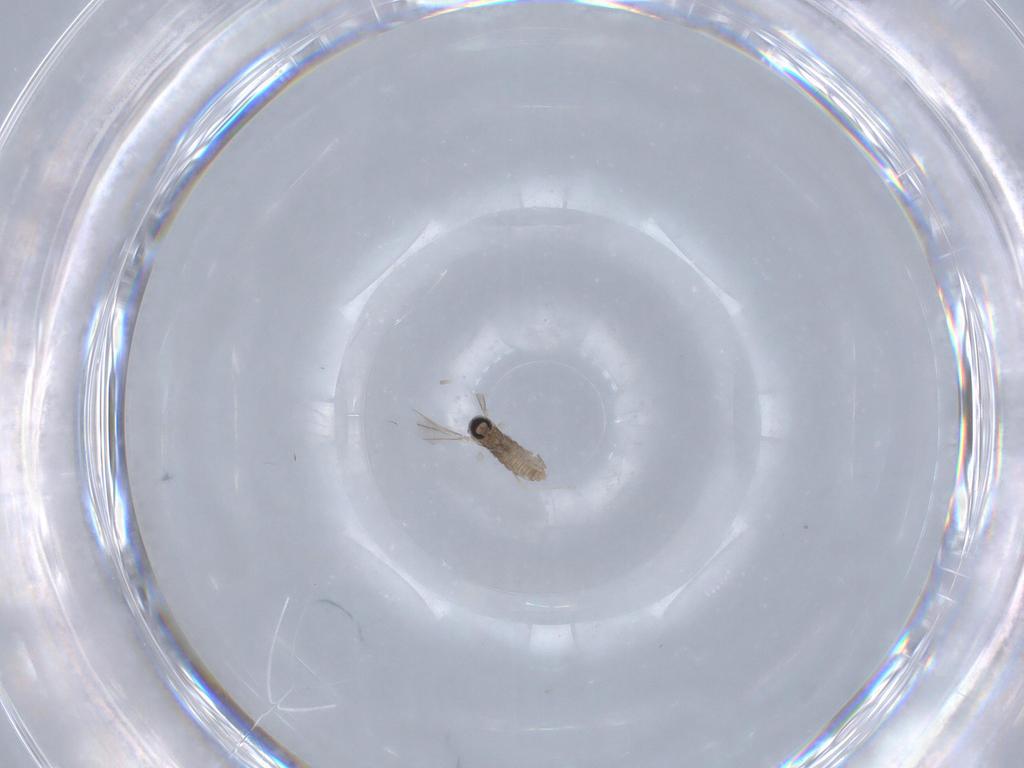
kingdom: Animalia
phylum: Arthropoda
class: Insecta
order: Diptera
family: Cecidomyiidae
